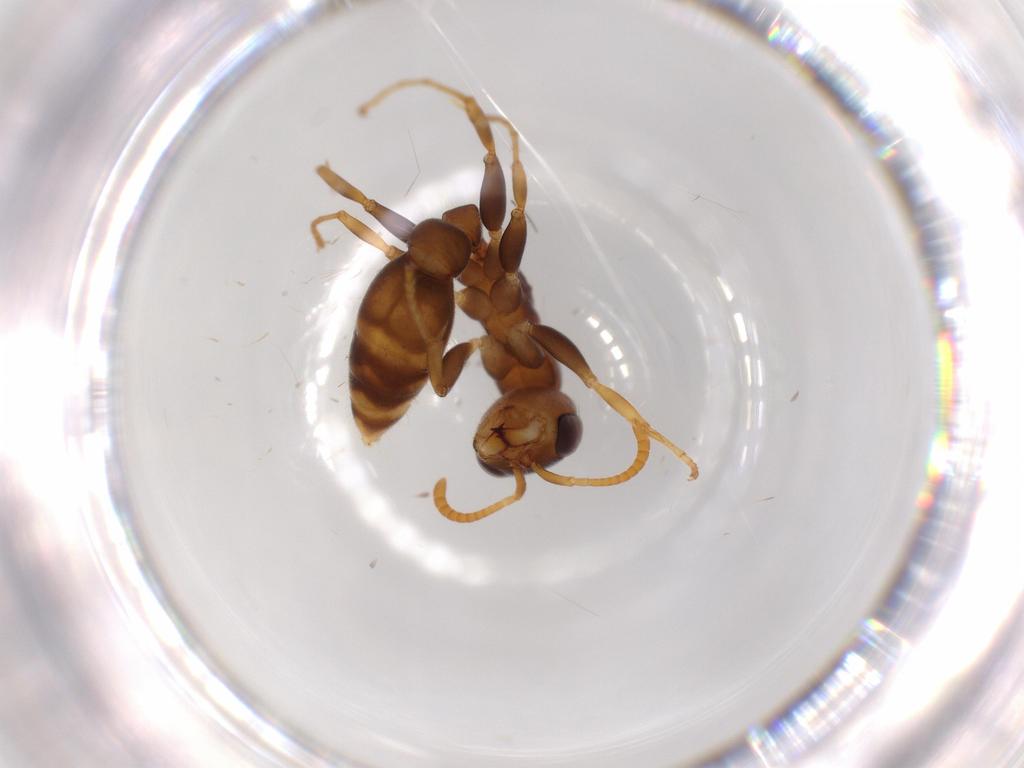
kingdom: Animalia
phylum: Arthropoda
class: Insecta
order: Hymenoptera
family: Formicidae
